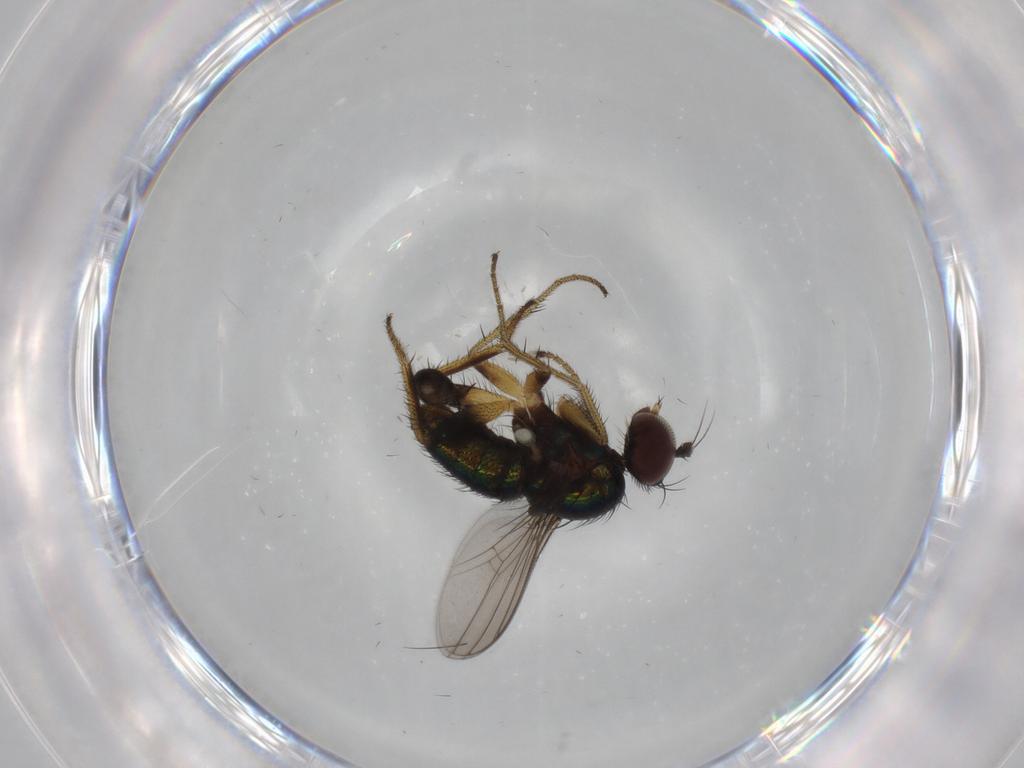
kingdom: Animalia
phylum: Arthropoda
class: Insecta
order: Diptera
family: Dolichopodidae
